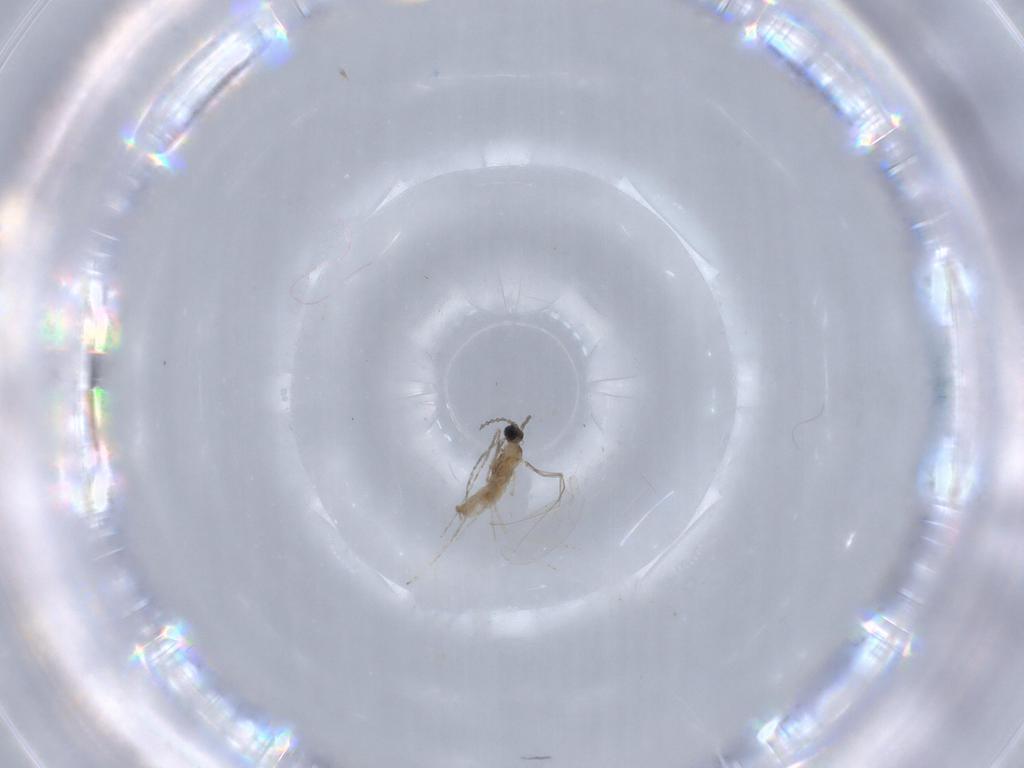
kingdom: Animalia
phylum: Arthropoda
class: Insecta
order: Diptera
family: Cecidomyiidae
